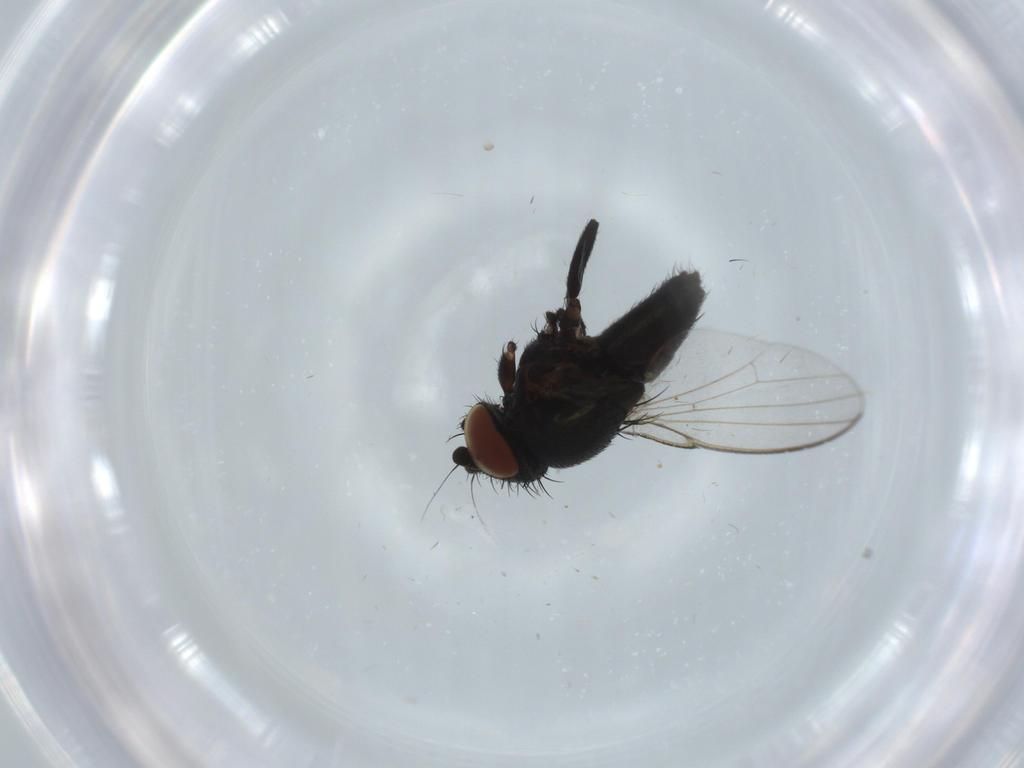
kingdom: Animalia
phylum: Arthropoda
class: Insecta
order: Diptera
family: Milichiidae
